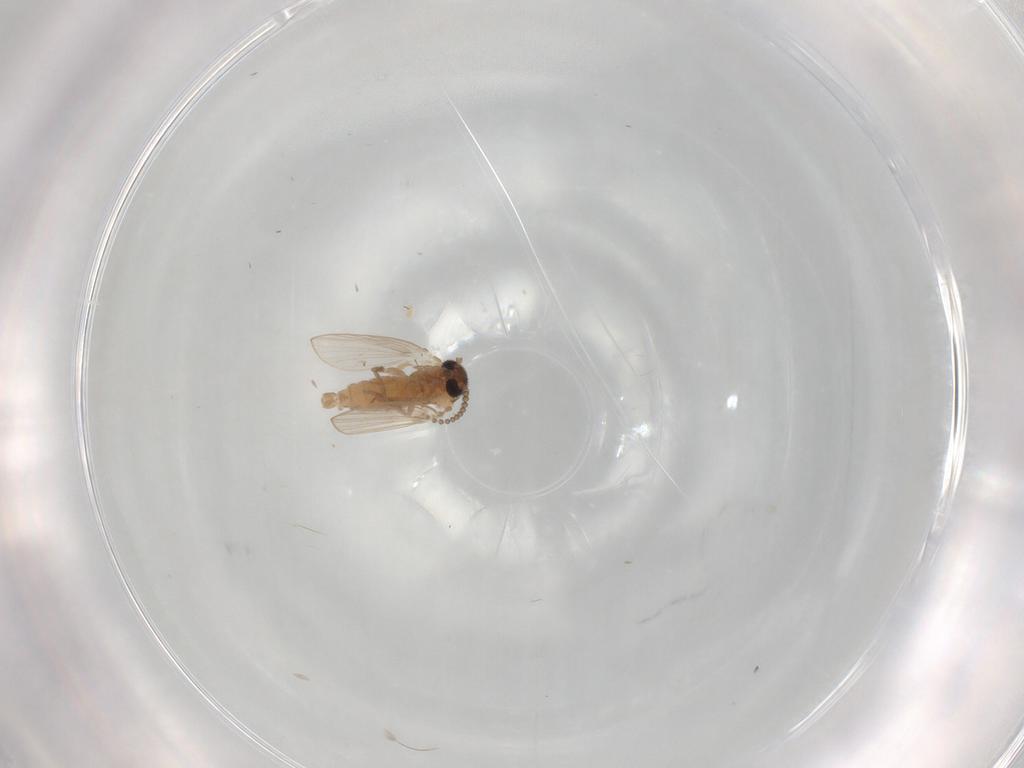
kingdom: Animalia
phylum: Arthropoda
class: Insecta
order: Diptera
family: Psychodidae
